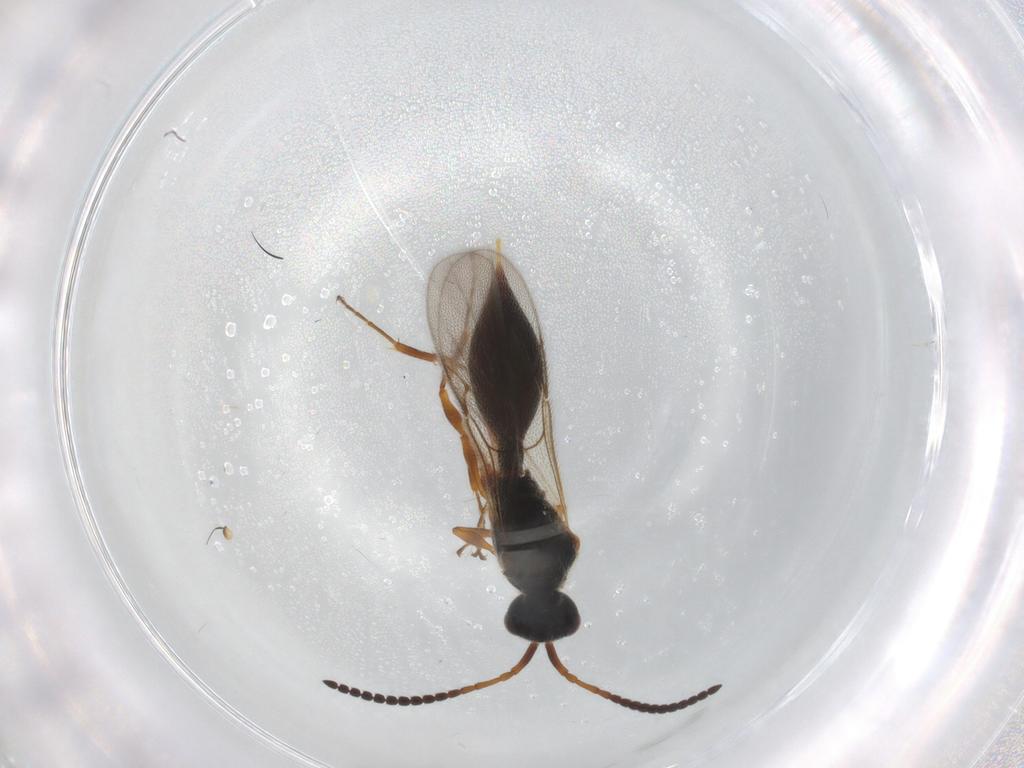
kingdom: Animalia
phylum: Arthropoda
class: Insecta
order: Hymenoptera
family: Diapriidae
